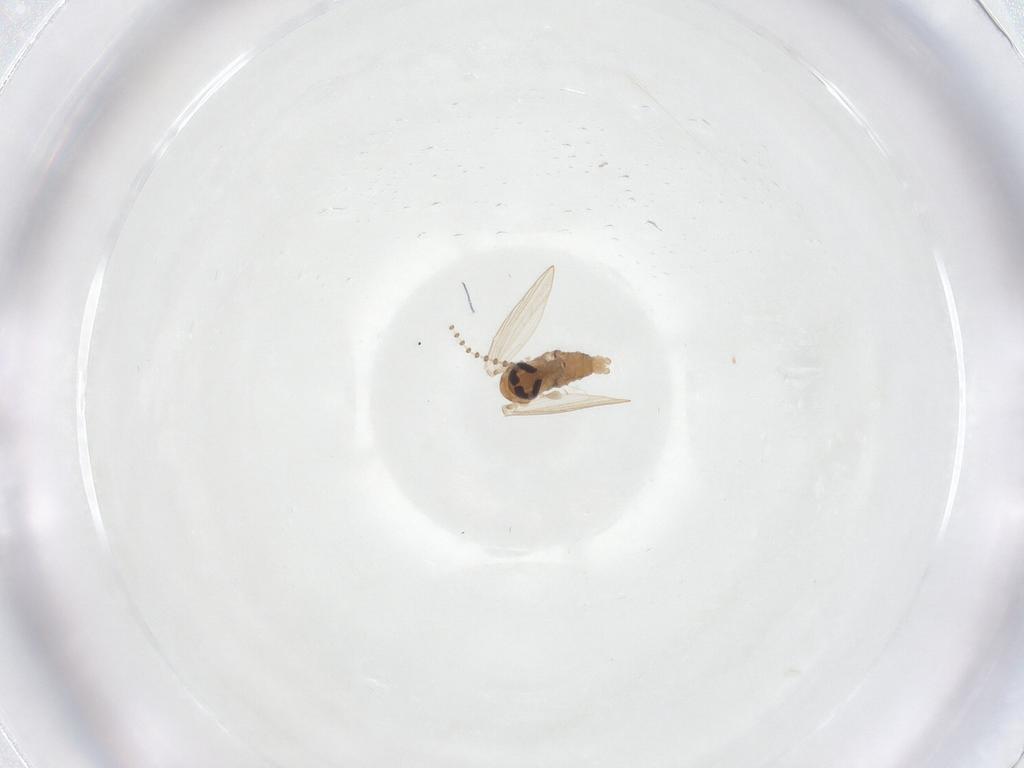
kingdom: Animalia
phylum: Arthropoda
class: Insecta
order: Diptera
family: Psychodidae
